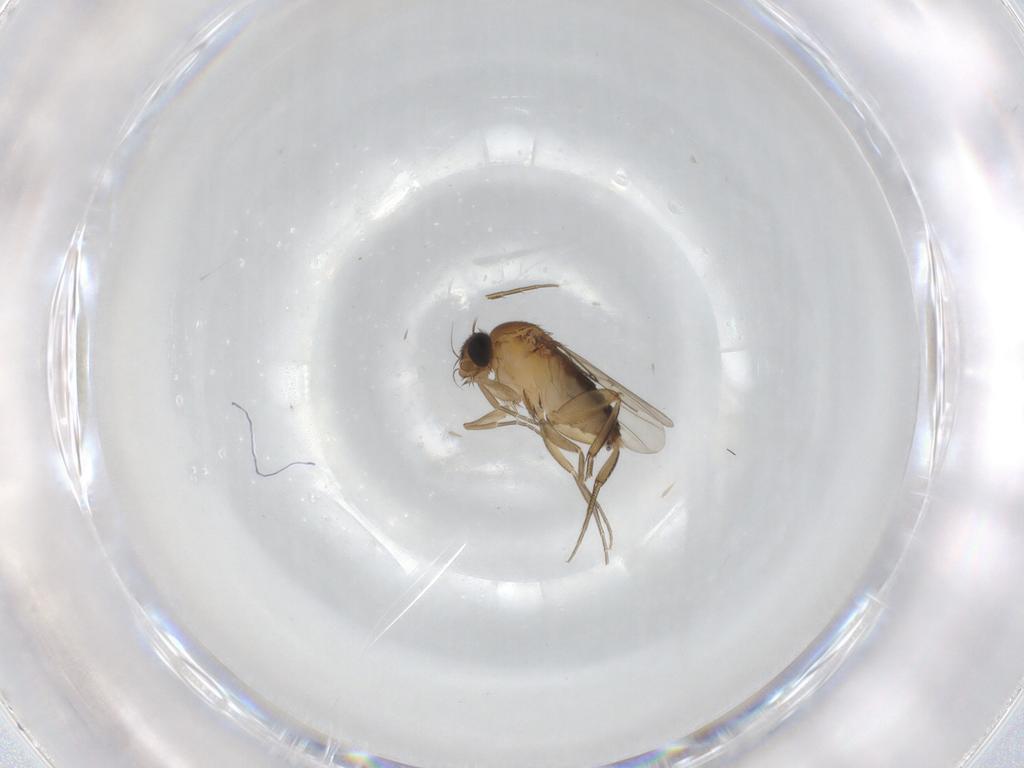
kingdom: Animalia
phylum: Arthropoda
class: Insecta
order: Diptera
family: Phoridae
